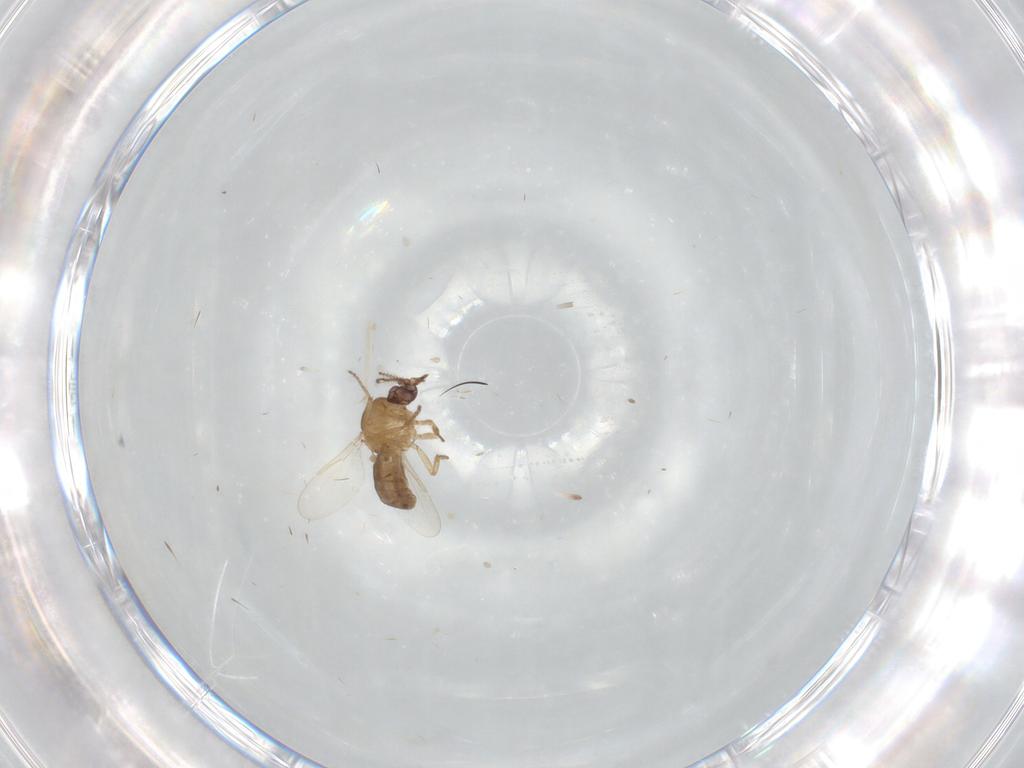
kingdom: Animalia
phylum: Arthropoda
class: Insecta
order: Diptera
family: Ceratopogonidae
